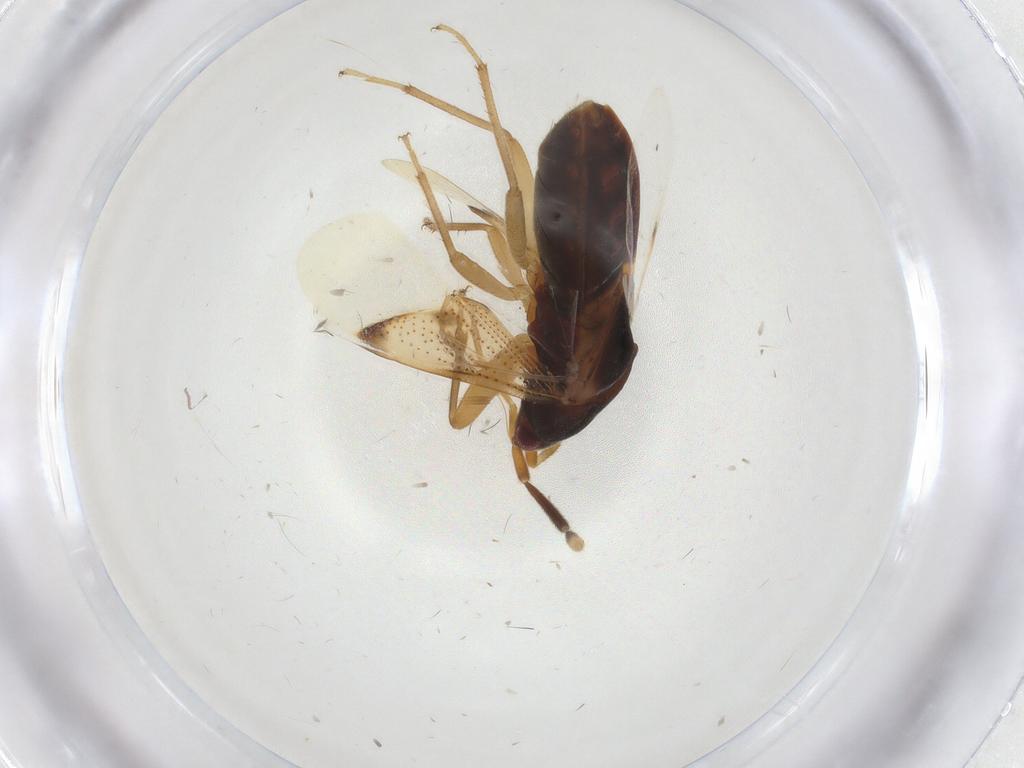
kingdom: Animalia
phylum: Arthropoda
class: Insecta
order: Hemiptera
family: Rhyparochromidae
